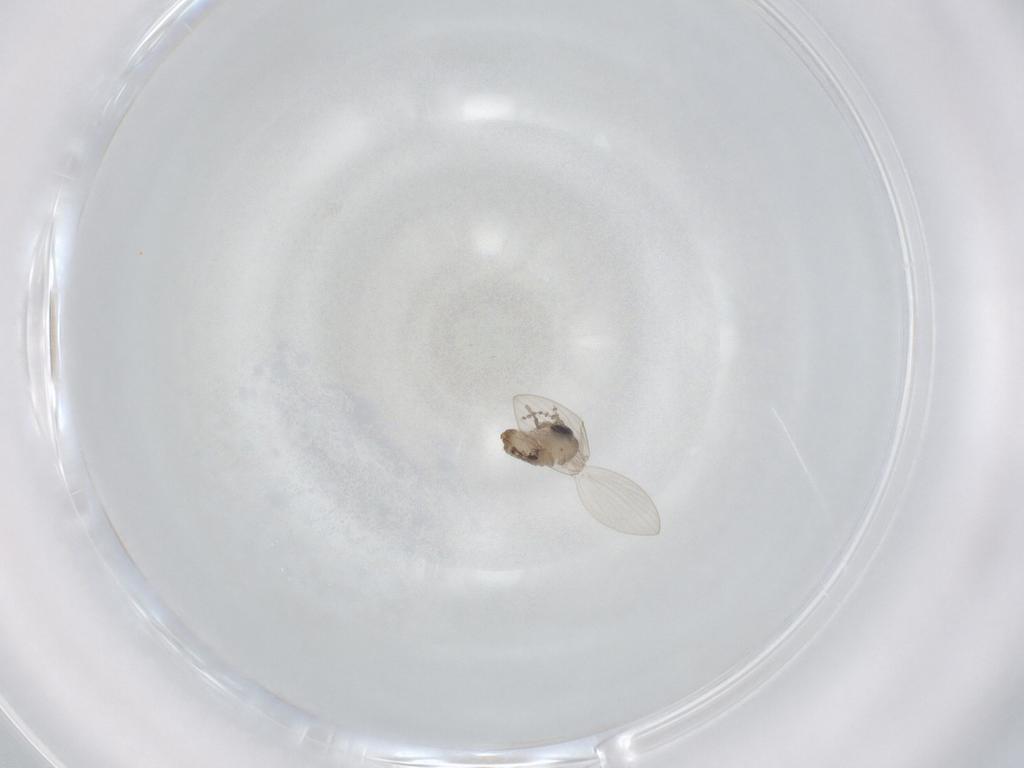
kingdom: Animalia
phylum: Arthropoda
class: Insecta
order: Diptera
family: Psychodidae
